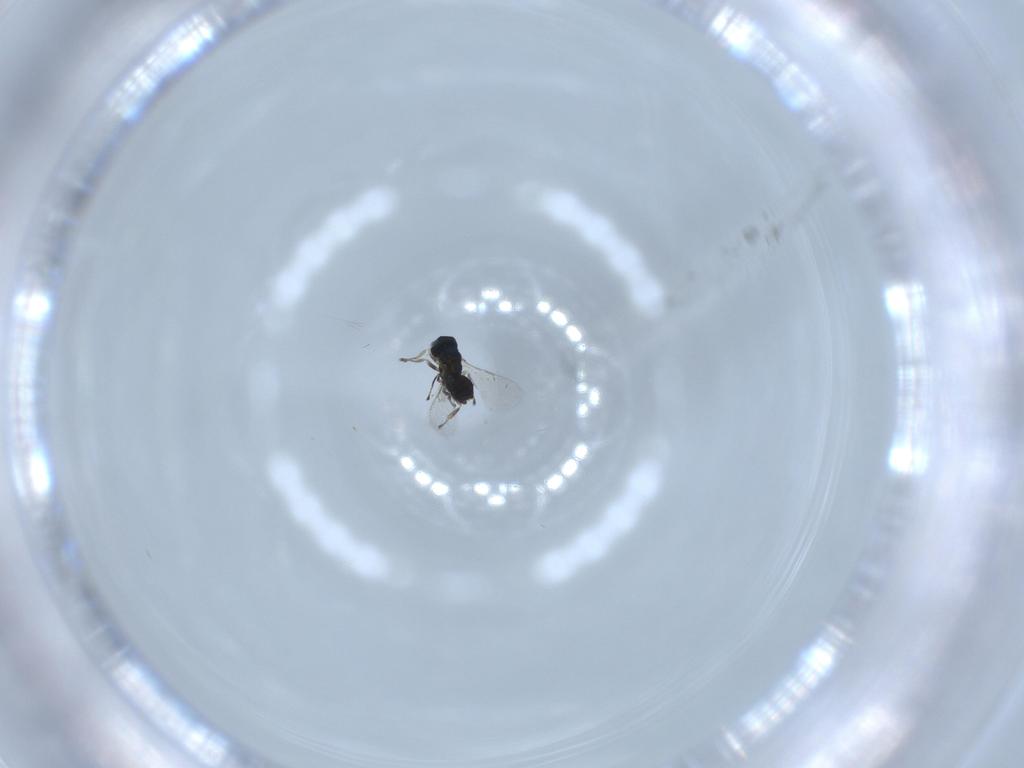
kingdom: Animalia
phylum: Arthropoda
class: Insecta
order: Hymenoptera
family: Eulophidae
